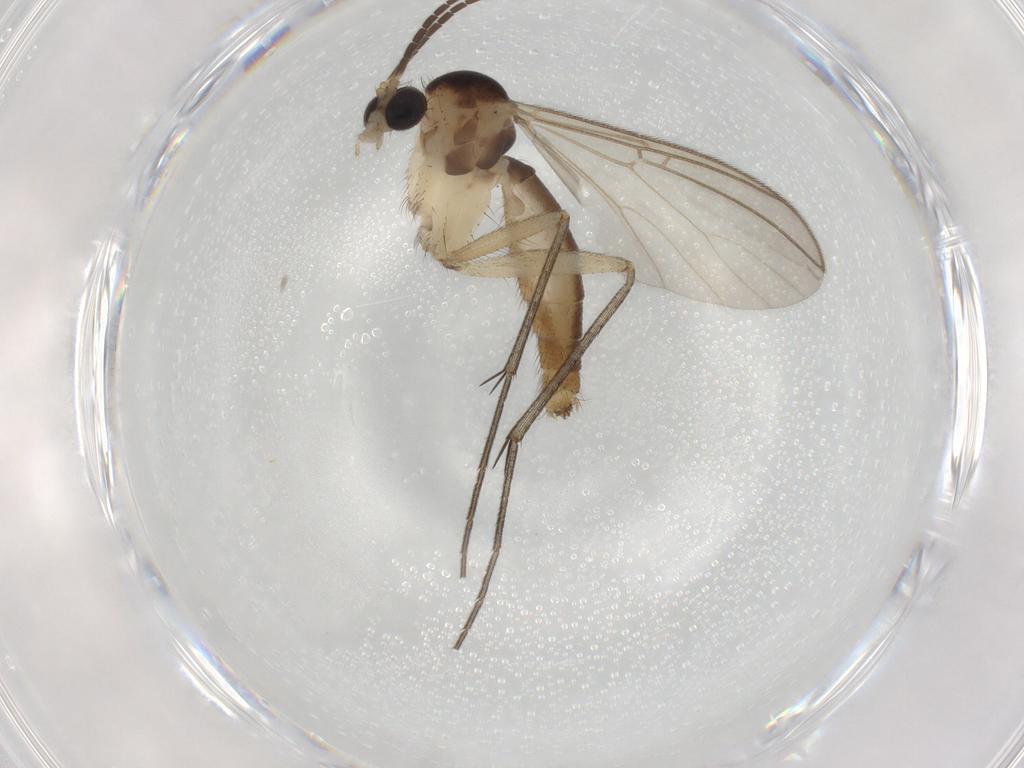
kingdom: Animalia
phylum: Arthropoda
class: Insecta
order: Diptera
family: Mycetophilidae
